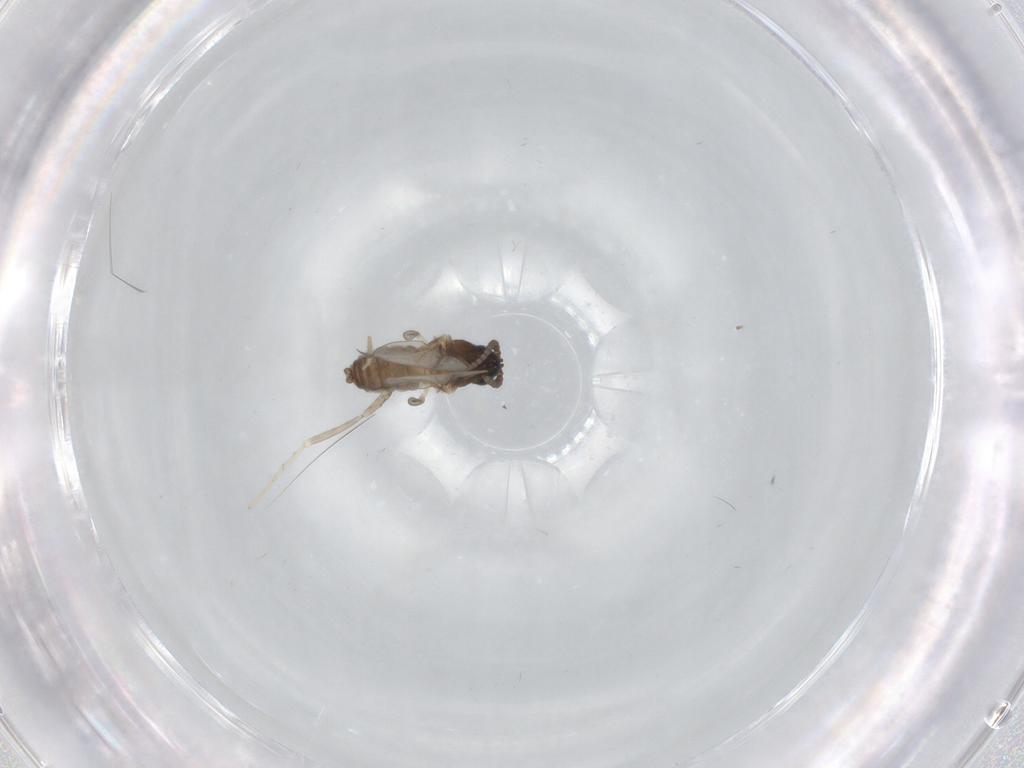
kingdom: Animalia
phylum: Arthropoda
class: Insecta
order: Diptera
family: Cecidomyiidae
